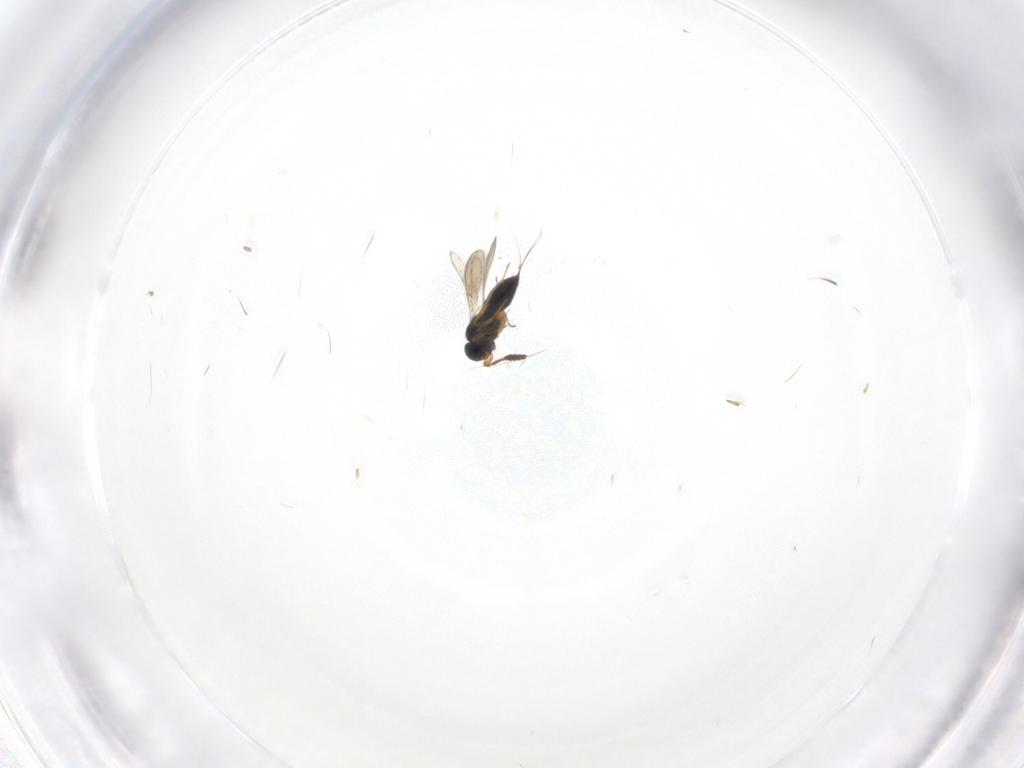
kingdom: Animalia
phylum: Arthropoda
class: Insecta
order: Hymenoptera
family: Scelionidae
